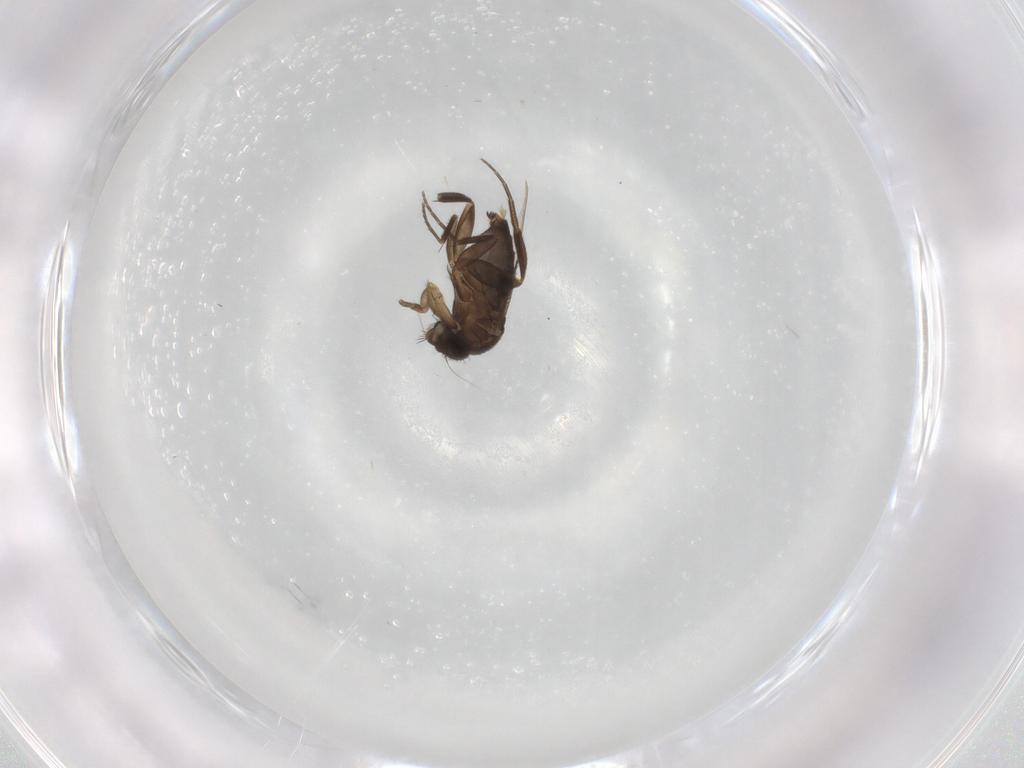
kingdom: Animalia
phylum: Arthropoda
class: Insecta
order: Diptera
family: Phoridae
